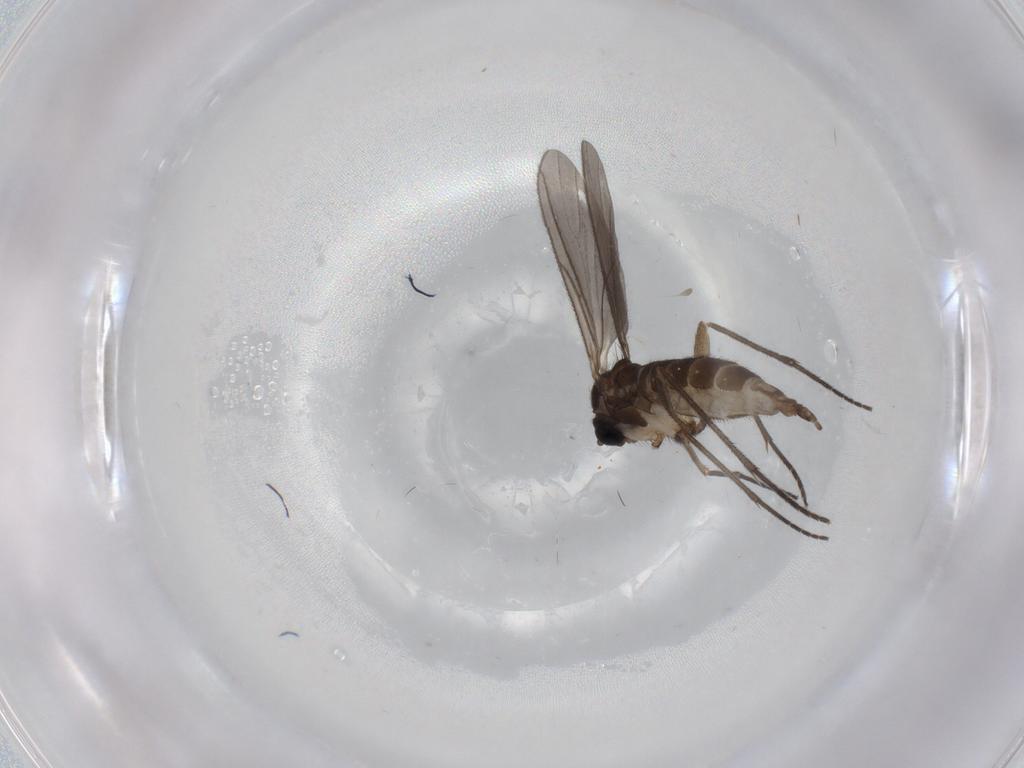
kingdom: Animalia
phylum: Arthropoda
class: Insecta
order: Diptera
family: Sciaridae
